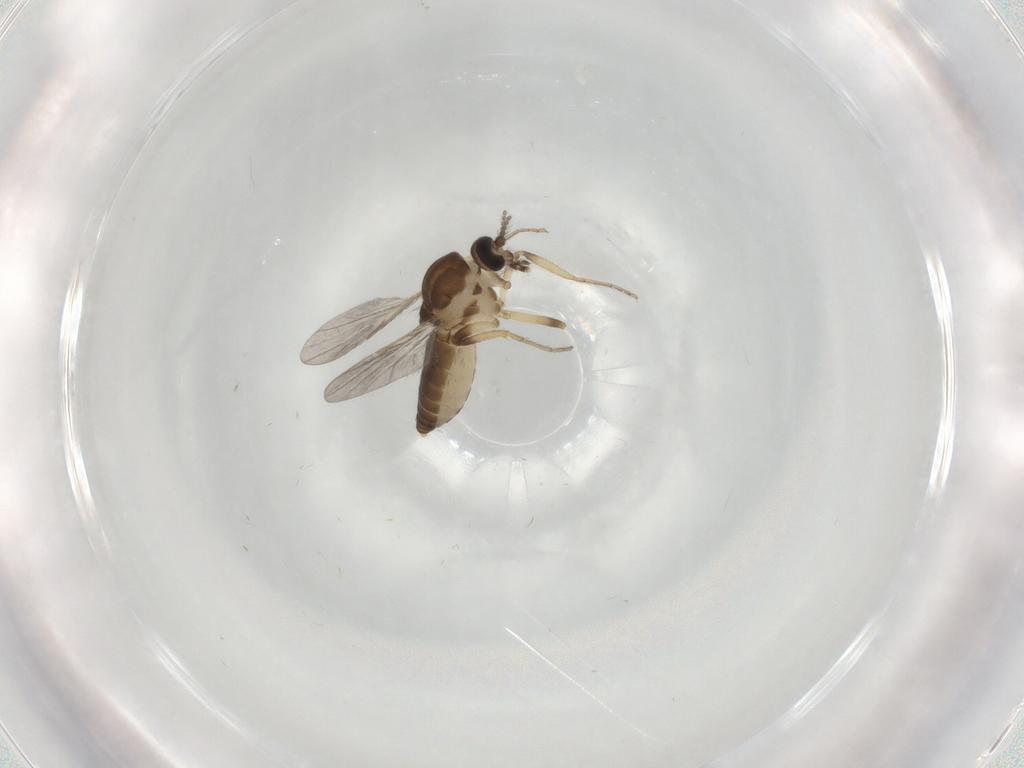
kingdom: Animalia
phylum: Arthropoda
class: Insecta
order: Diptera
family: Ceratopogonidae
